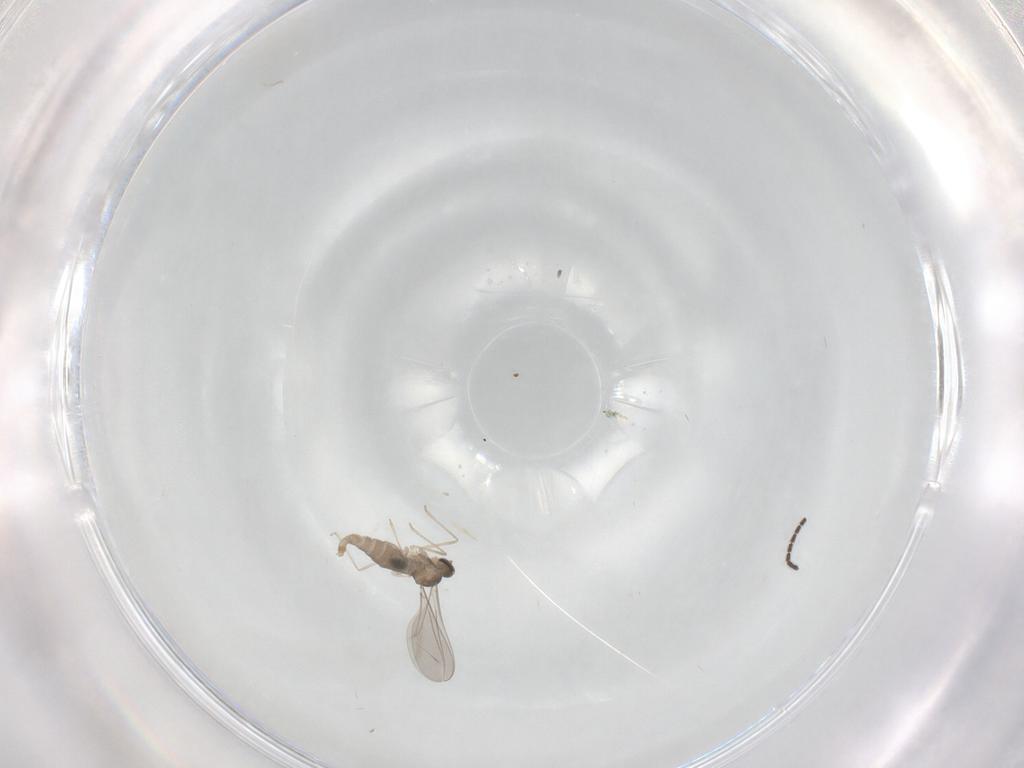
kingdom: Animalia
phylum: Arthropoda
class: Insecta
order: Diptera
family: Sciaridae
